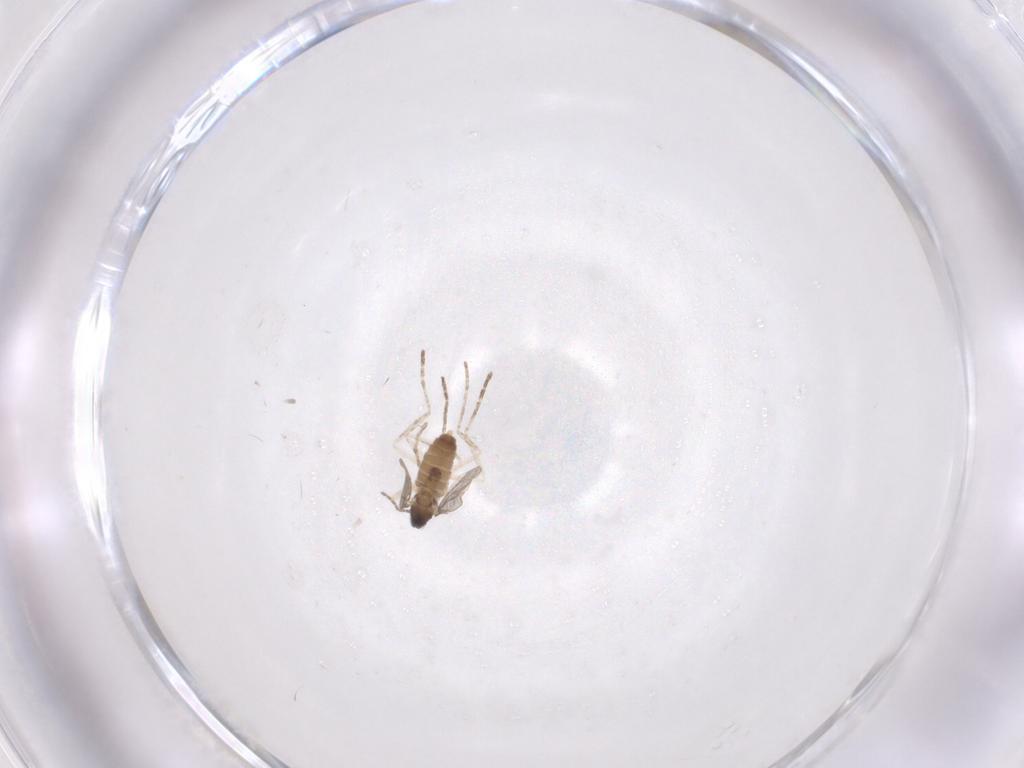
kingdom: Animalia
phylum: Arthropoda
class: Insecta
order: Diptera
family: Cecidomyiidae
